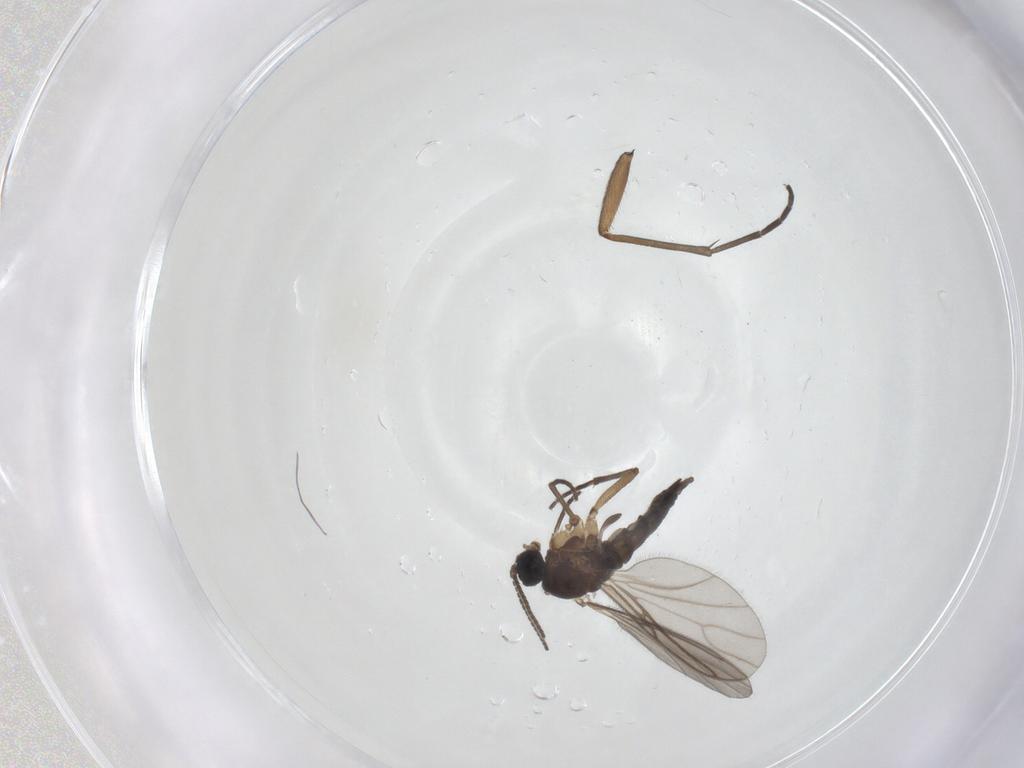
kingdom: Animalia
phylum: Arthropoda
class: Insecta
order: Diptera
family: Sciaridae
